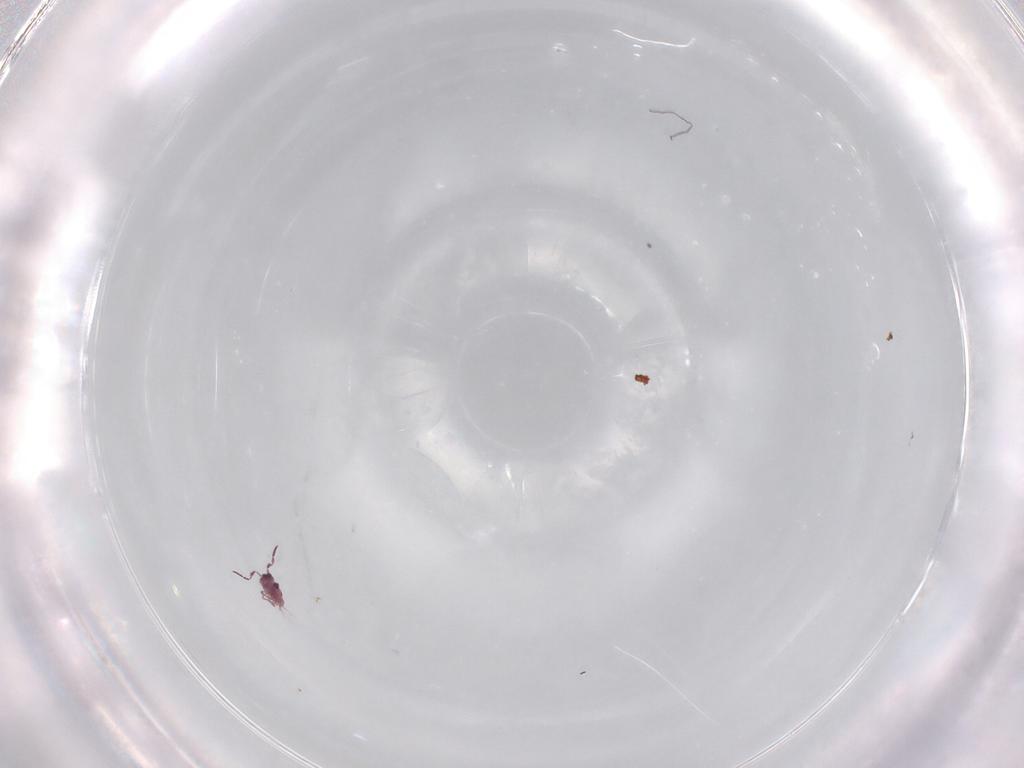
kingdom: Animalia
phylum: Arthropoda
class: Collembola
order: Symphypleona
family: Sminthurididae
